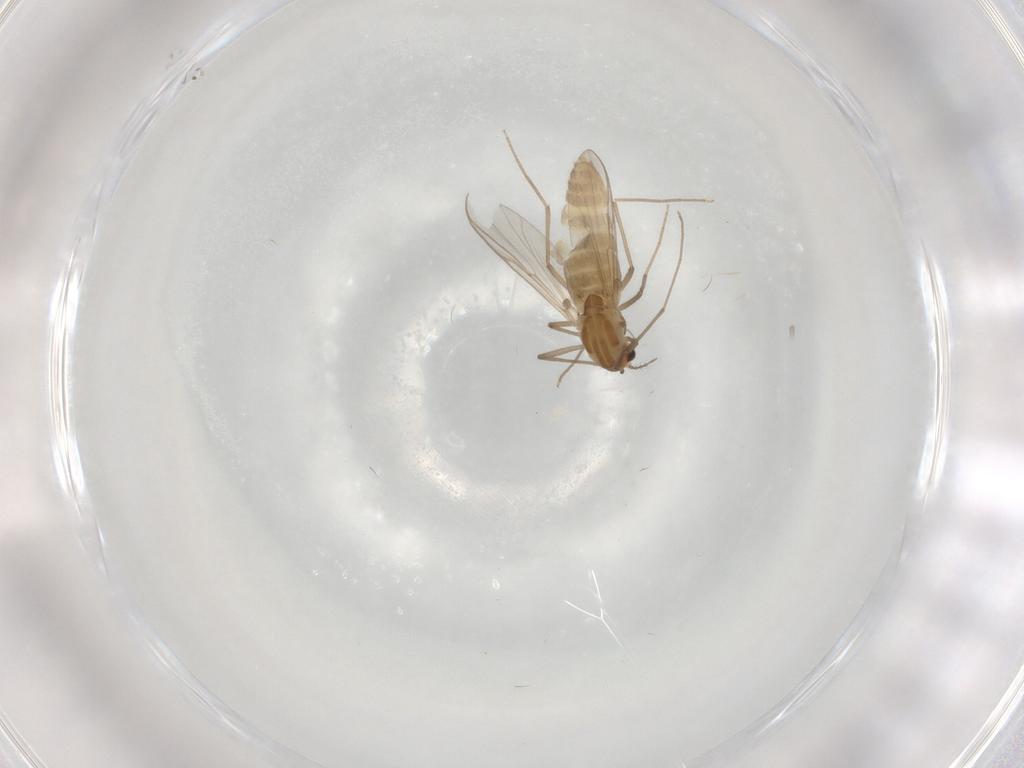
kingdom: Animalia
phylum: Arthropoda
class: Insecta
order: Diptera
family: Chironomidae
